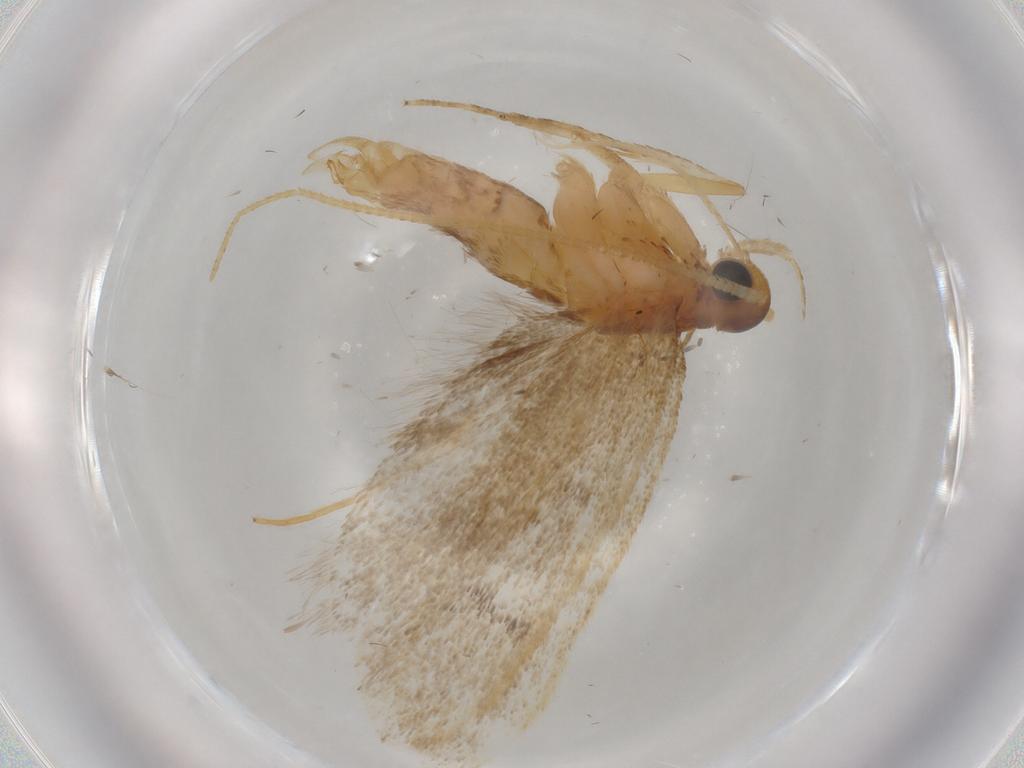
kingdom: Animalia
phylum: Arthropoda
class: Insecta
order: Lepidoptera
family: Lecithoceridae
